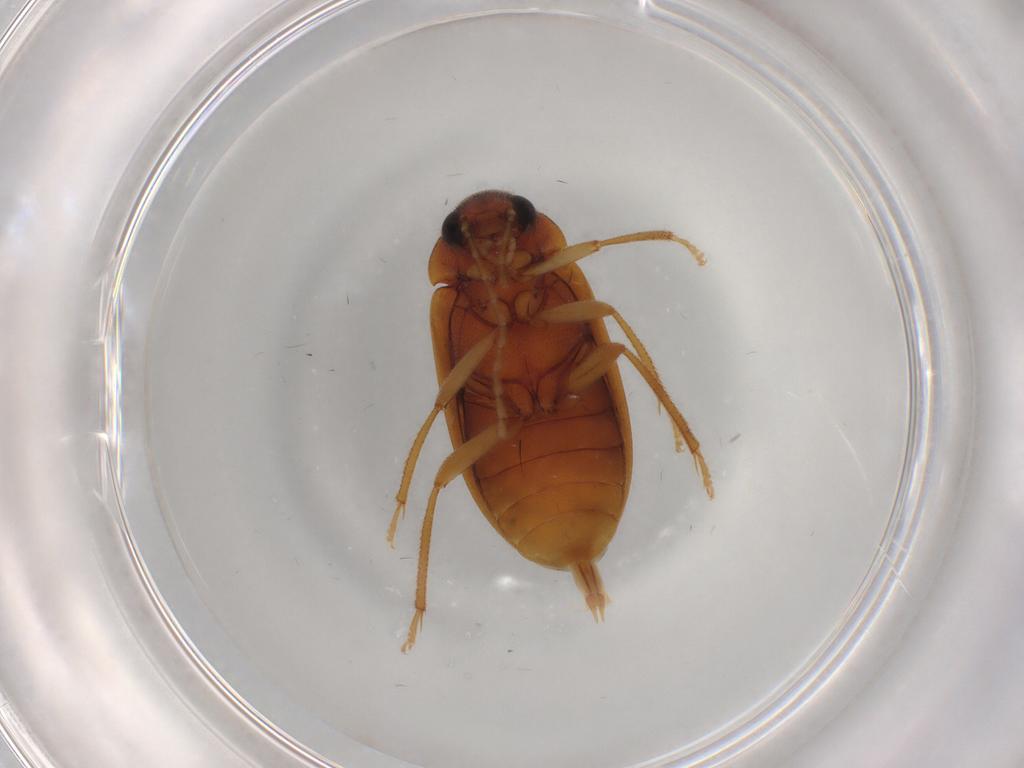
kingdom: Animalia
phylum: Arthropoda
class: Insecta
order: Coleoptera
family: Ptilodactylidae
